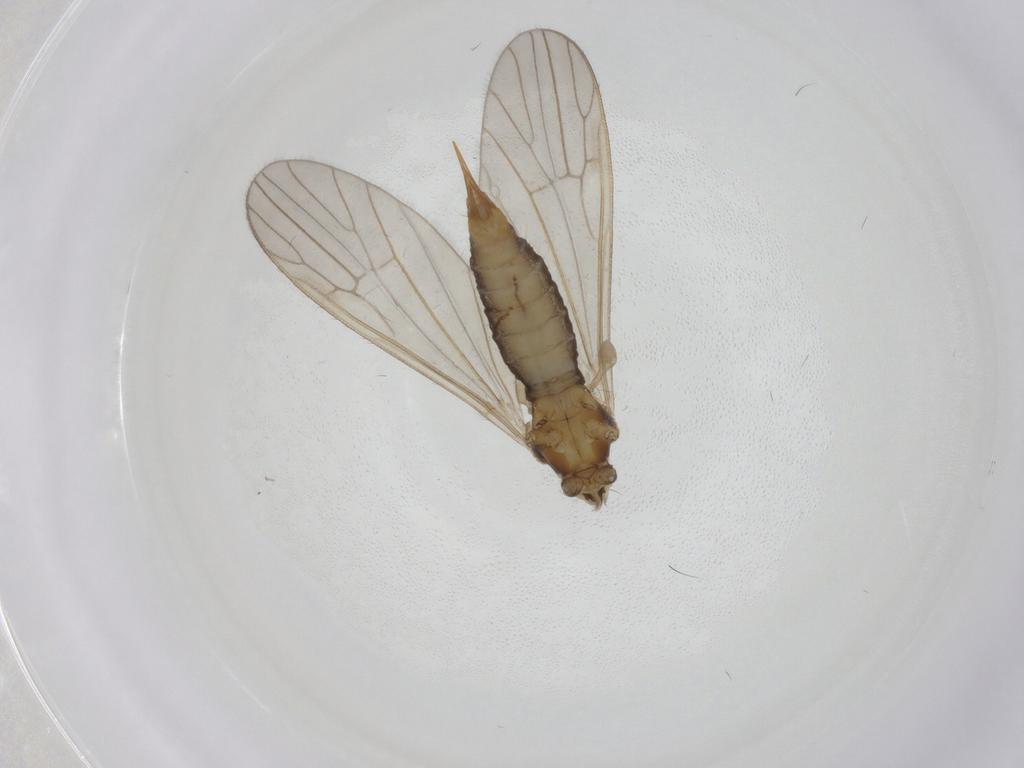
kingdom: Animalia
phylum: Arthropoda
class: Insecta
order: Diptera
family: Agromyzidae
